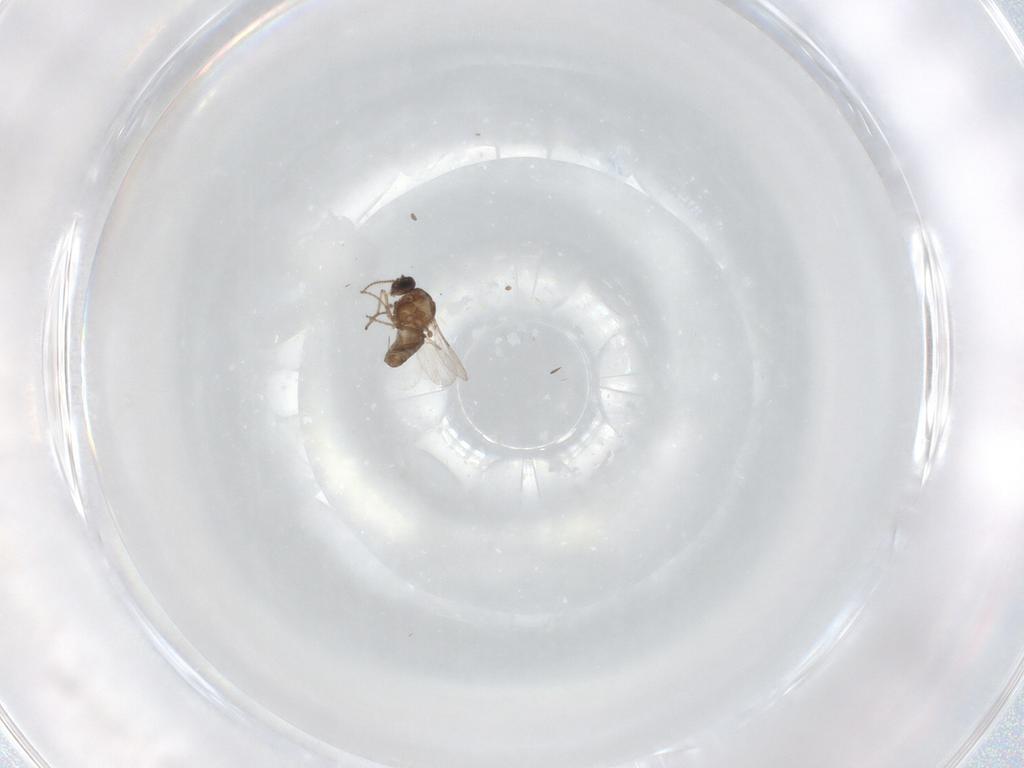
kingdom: Animalia
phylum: Arthropoda
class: Insecta
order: Diptera
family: Ceratopogonidae
